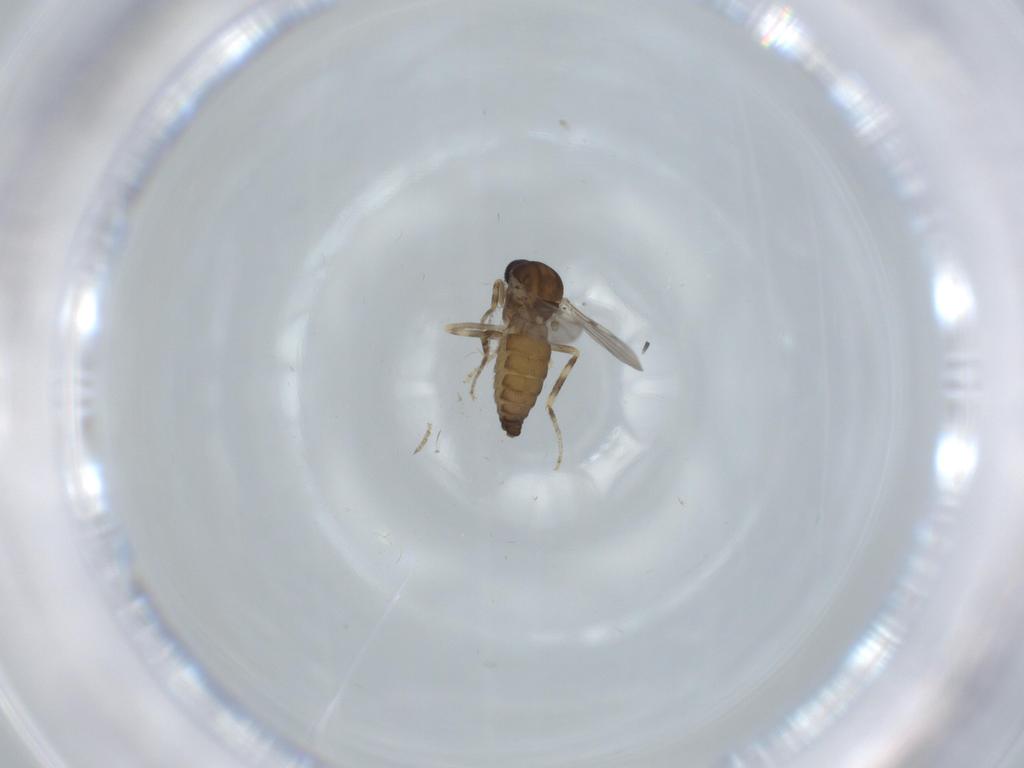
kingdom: Animalia
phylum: Arthropoda
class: Insecta
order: Diptera
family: Ceratopogonidae
